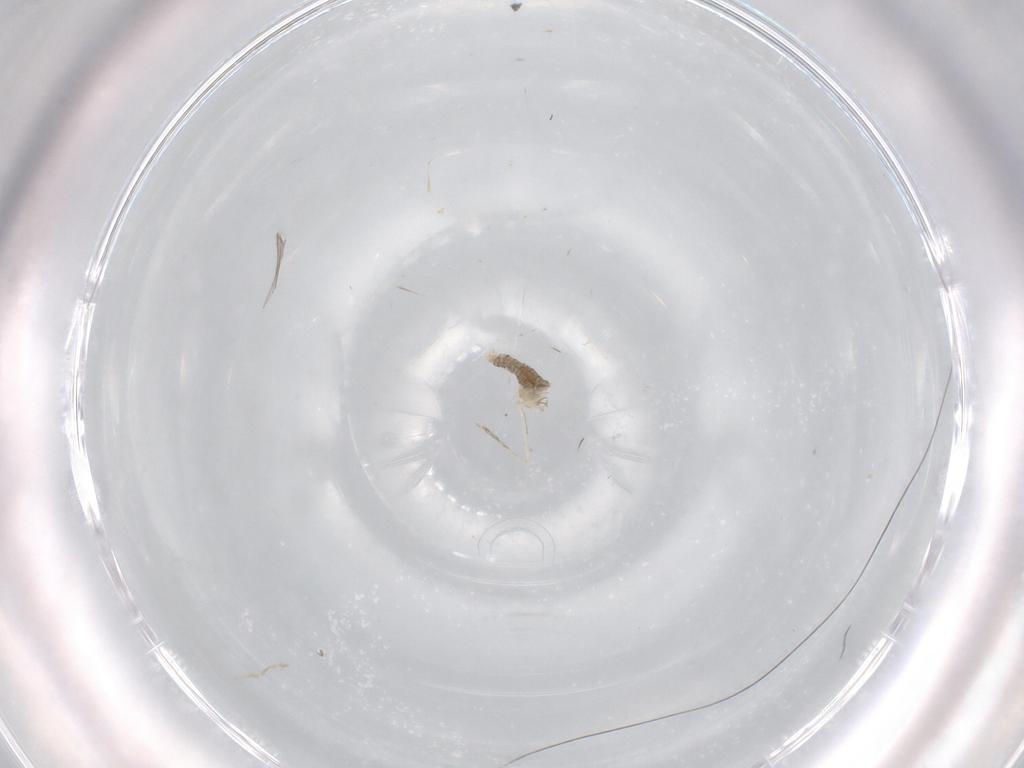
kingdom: Animalia
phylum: Arthropoda
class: Insecta
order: Diptera
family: Cecidomyiidae
